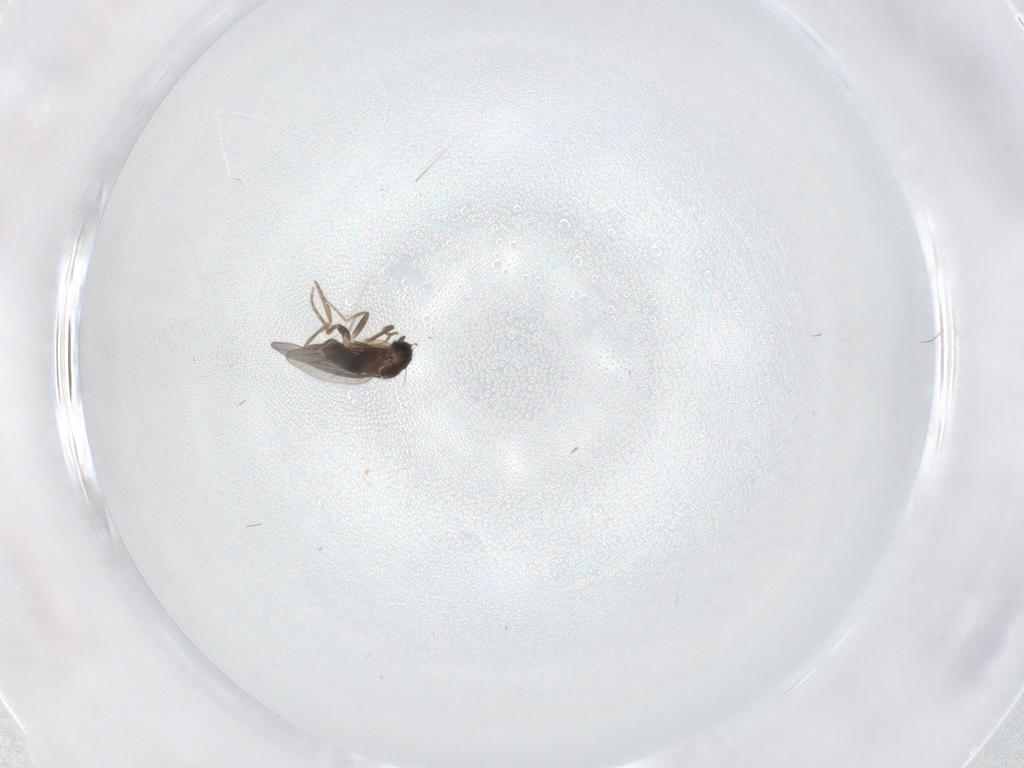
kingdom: Animalia
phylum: Arthropoda
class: Insecta
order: Diptera
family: Phoridae
